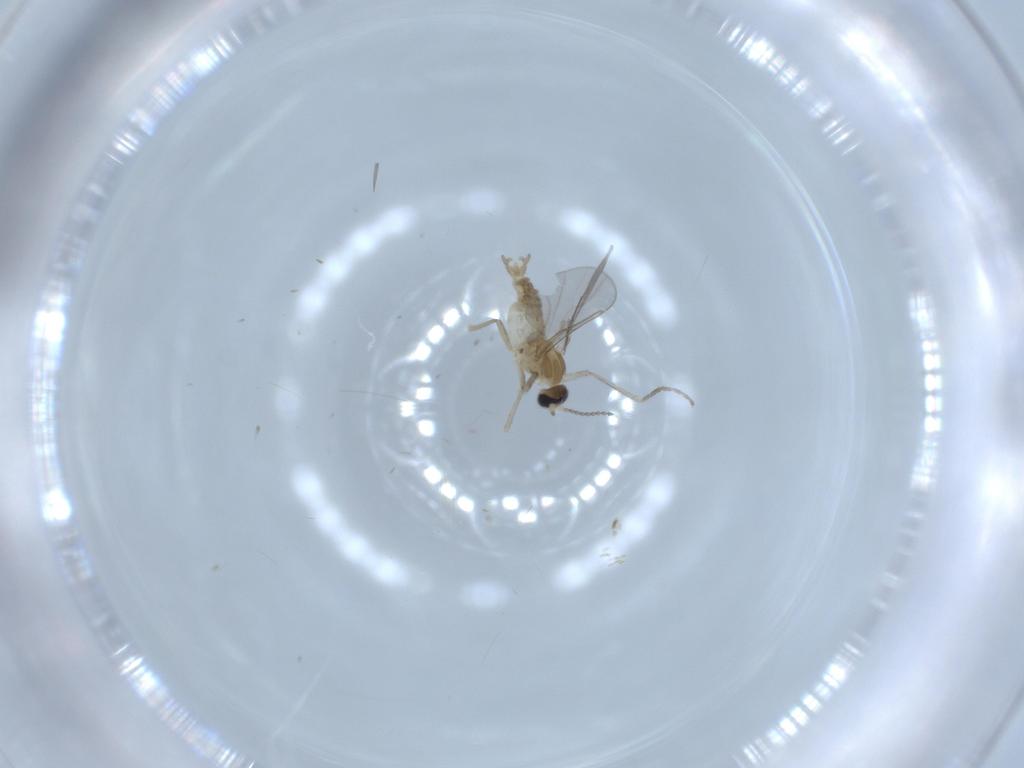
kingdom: Animalia
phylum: Arthropoda
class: Insecta
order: Diptera
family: Cecidomyiidae
